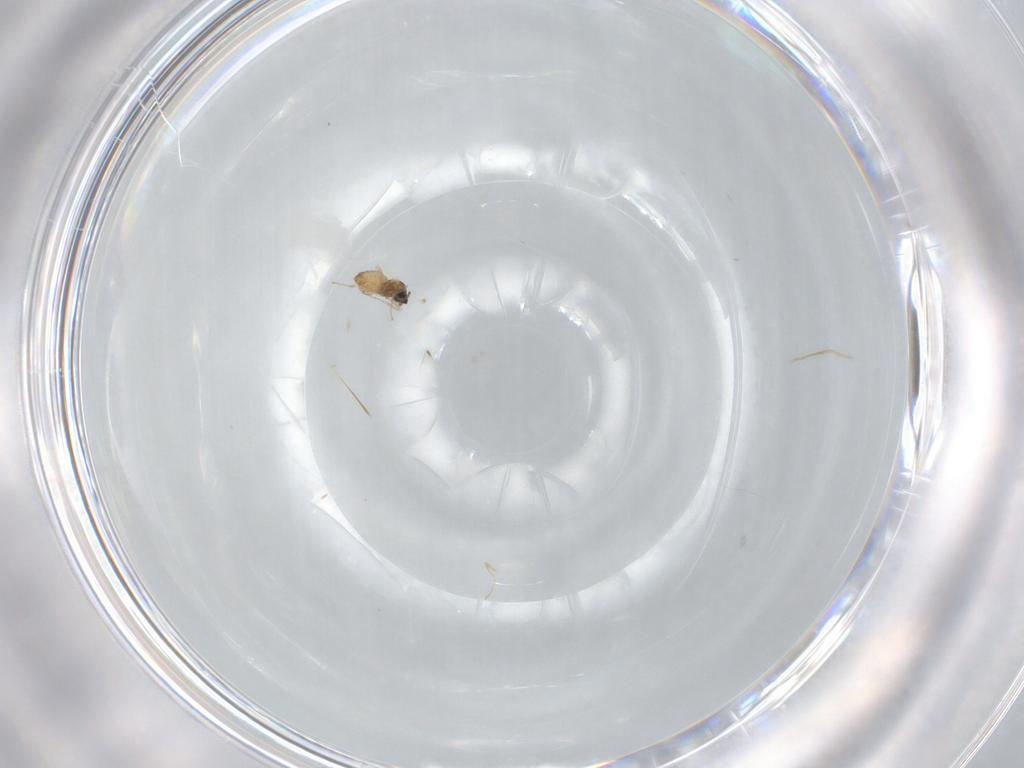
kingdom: Animalia
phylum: Arthropoda
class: Insecta
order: Diptera
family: Cecidomyiidae
